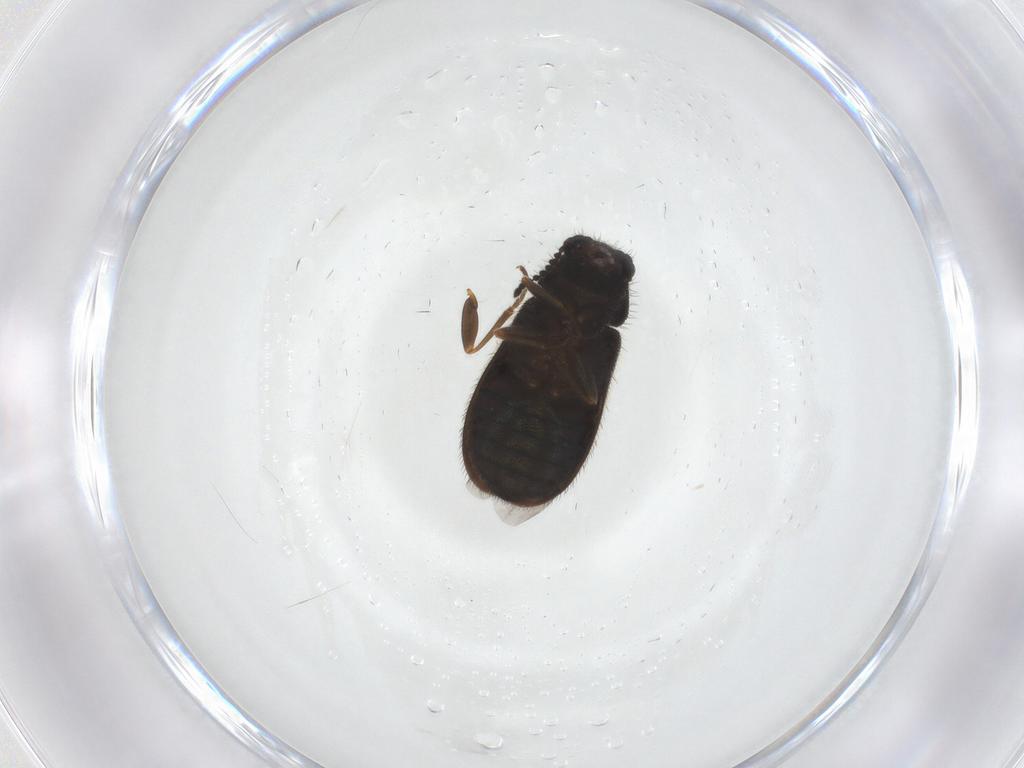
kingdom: Animalia
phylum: Arthropoda
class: Insecta
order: Coleoptera
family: Melyridae
